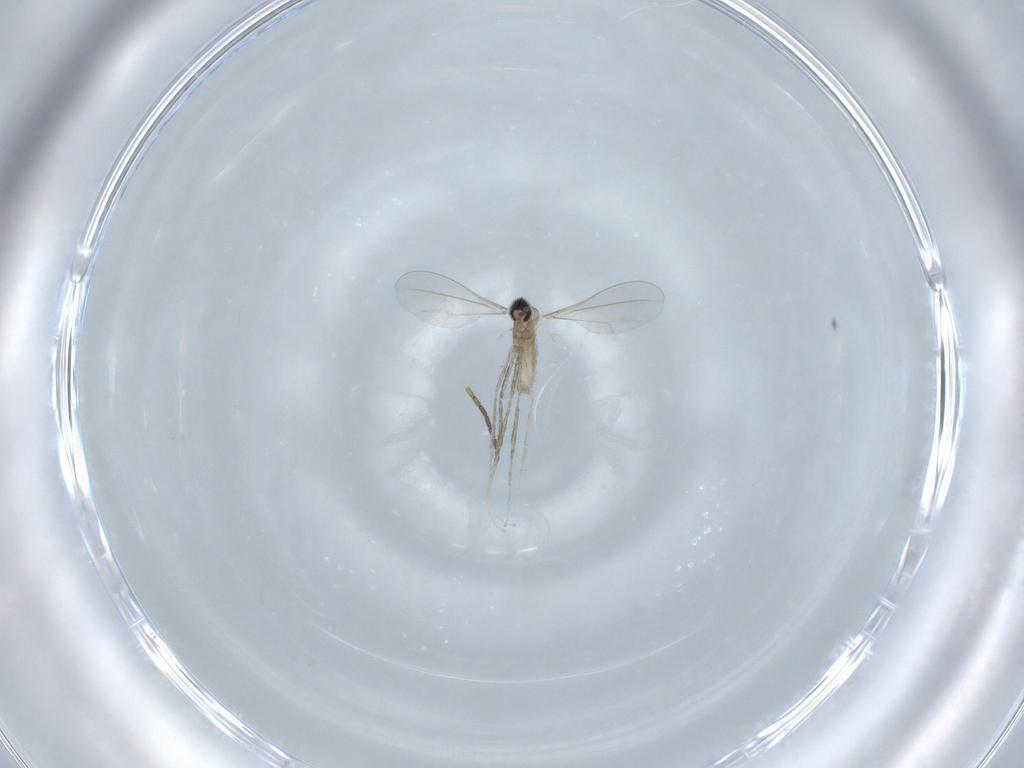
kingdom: Animalia
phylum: Arthropoda
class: Insecta
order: Diptera
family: Sciaridae
